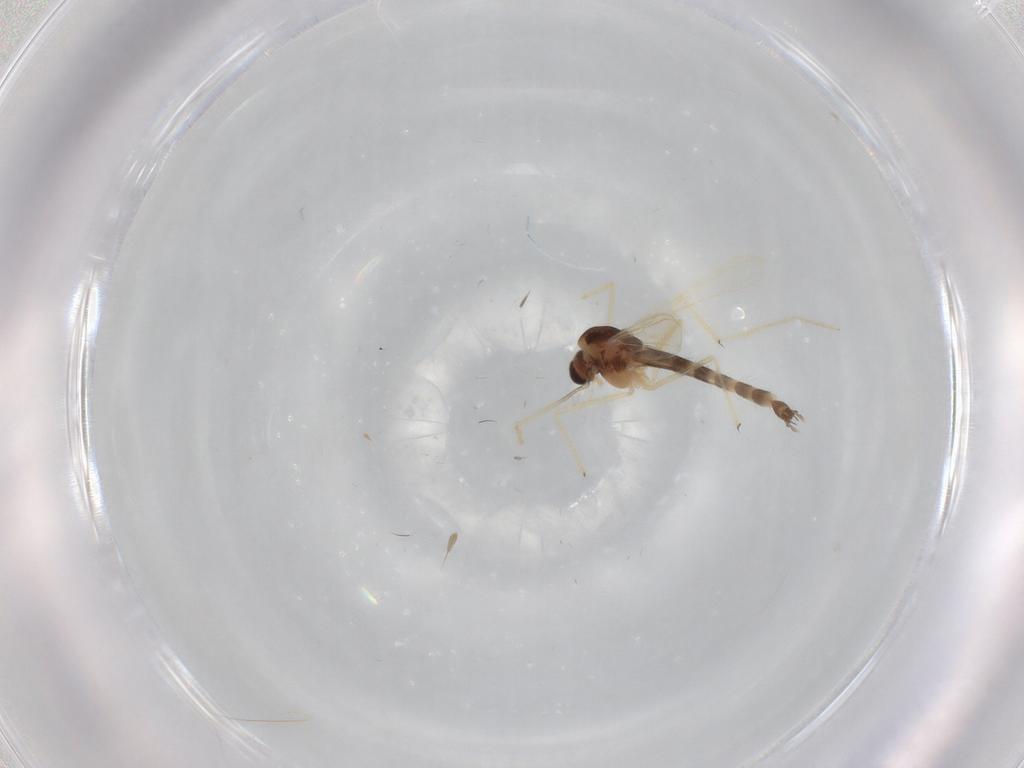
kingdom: Animalia
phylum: Arthropoda
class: Insecta
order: Diptera
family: Chironomidae
